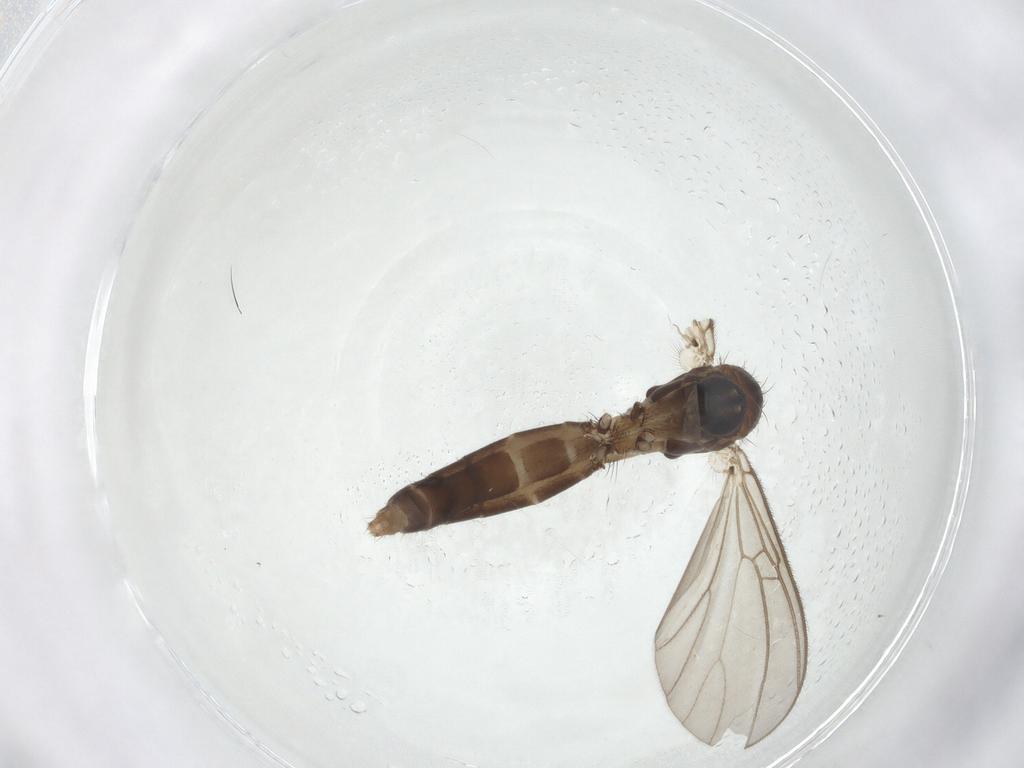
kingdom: Animalia
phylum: Arthropoda
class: Insecta
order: Diptera
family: Mycetophilidae
